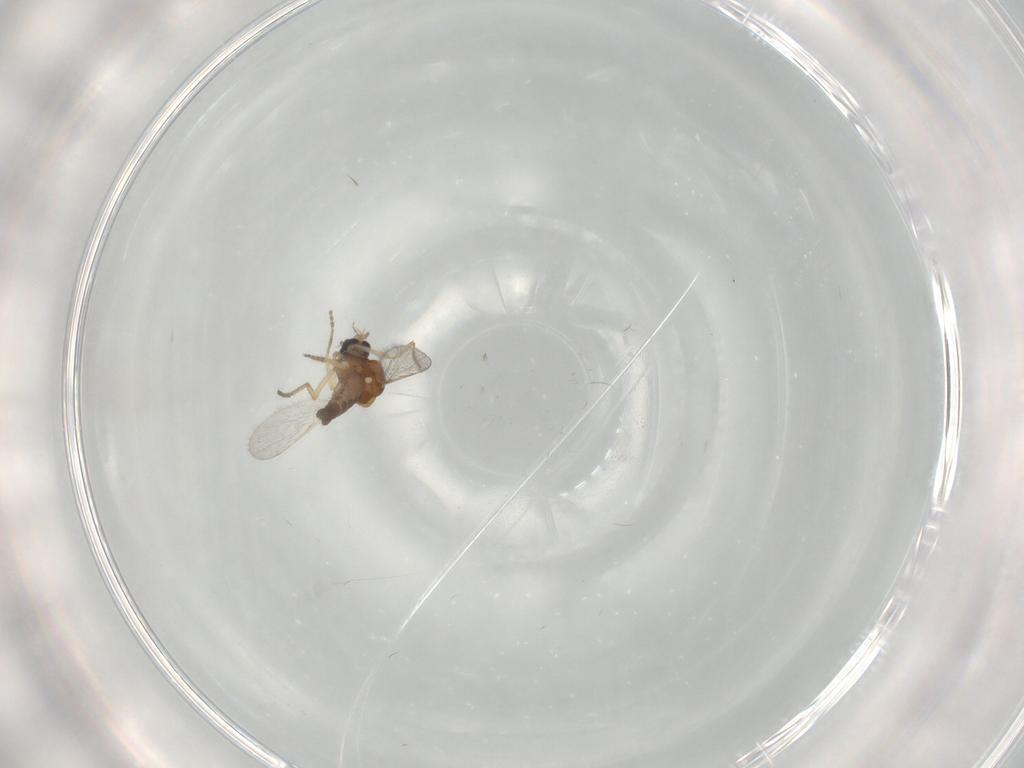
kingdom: Animalia
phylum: Arthropoda
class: Insecta
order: Diptera
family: Ceratopogonidae
